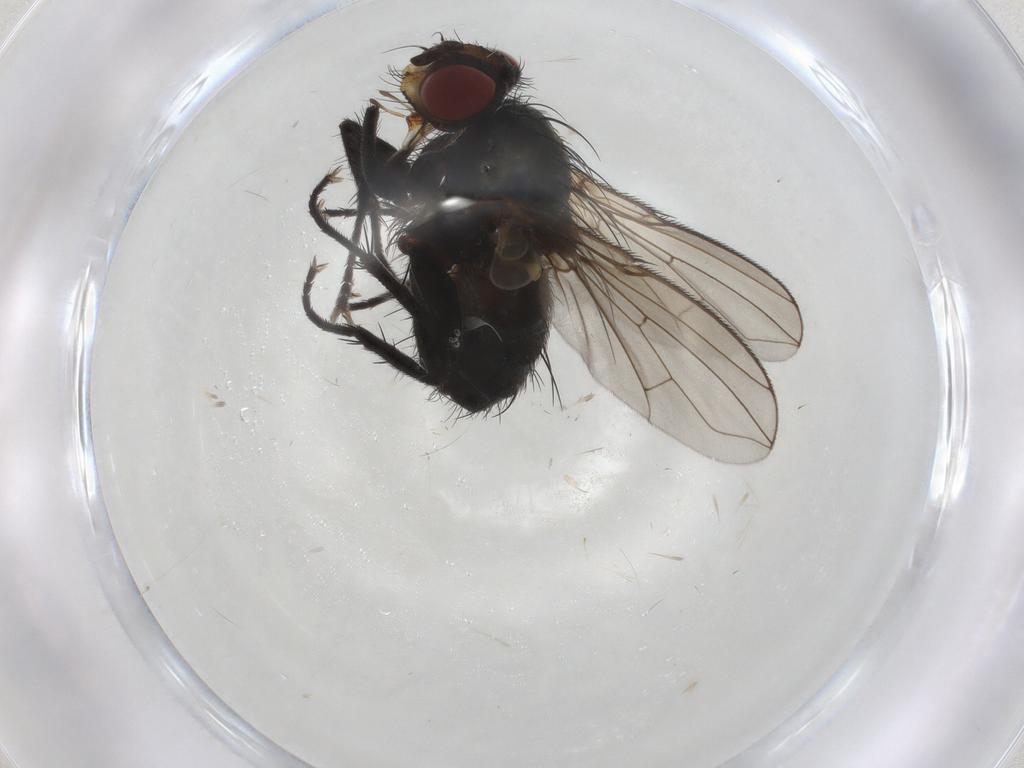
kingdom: Animalia
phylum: Arthropoda
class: Insecta
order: Diptera
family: Calliphoridae
